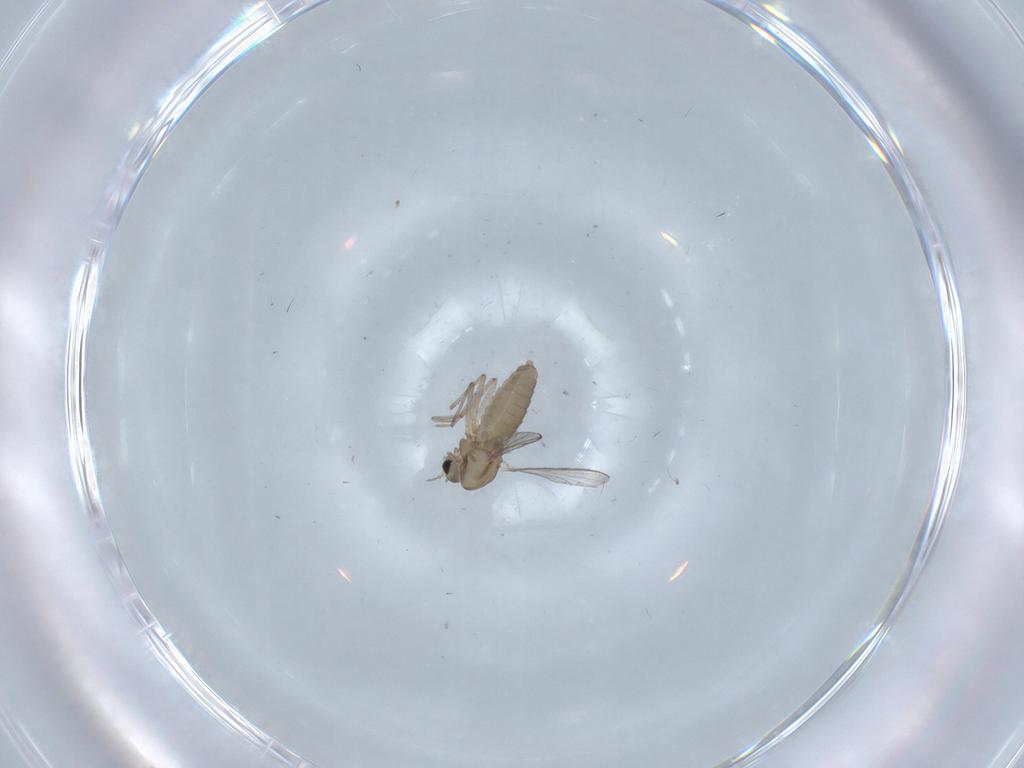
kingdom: Animalia
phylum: Arthropoda
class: Insecta
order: Diptera
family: Chironomidae
